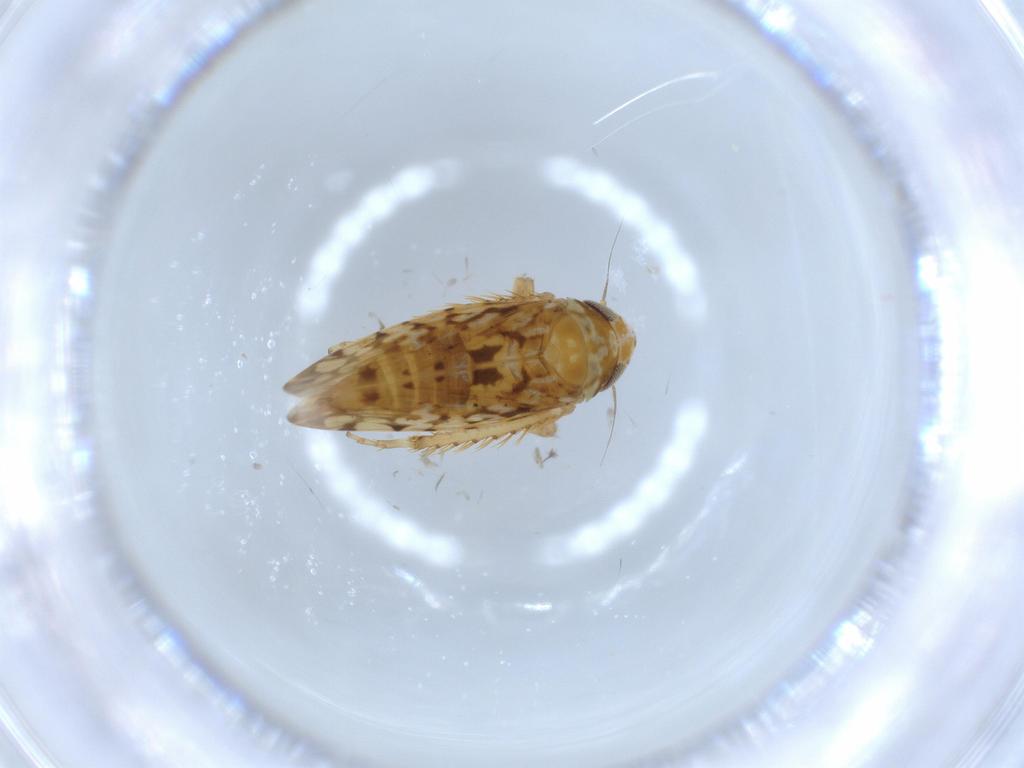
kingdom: Animalia
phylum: Arthropoda
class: Insecta
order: Hemiptera
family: Cicadellidae
